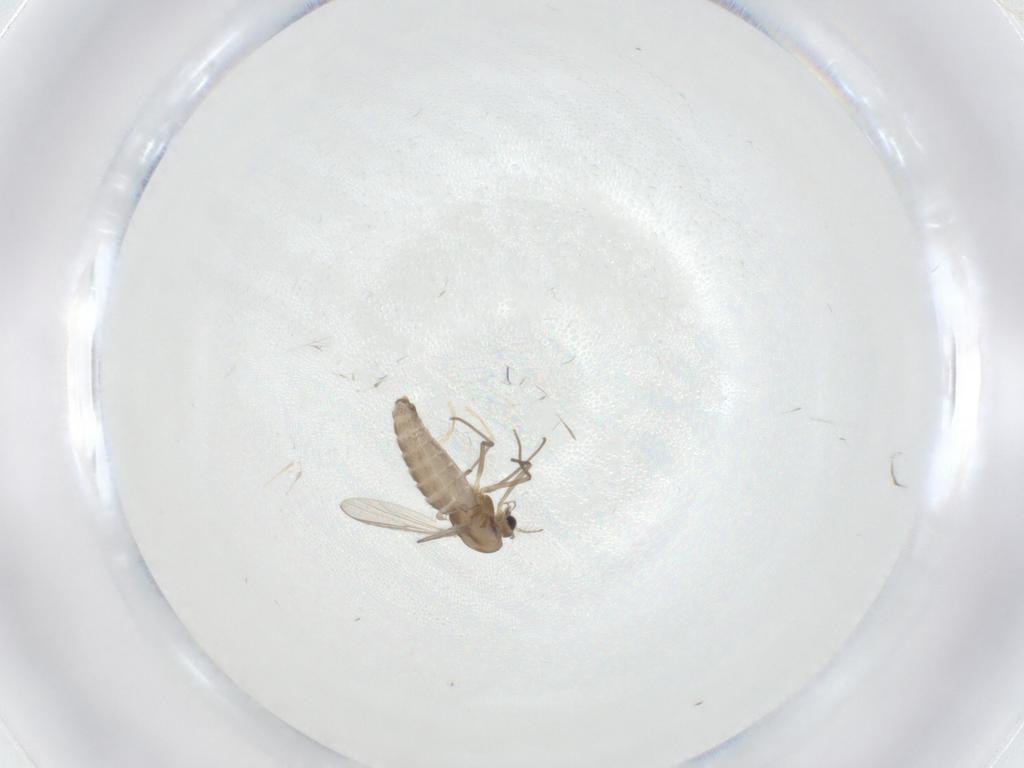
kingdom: Animalia
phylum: Arthropoda
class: Insecta
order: Diptera
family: Chironomidae
